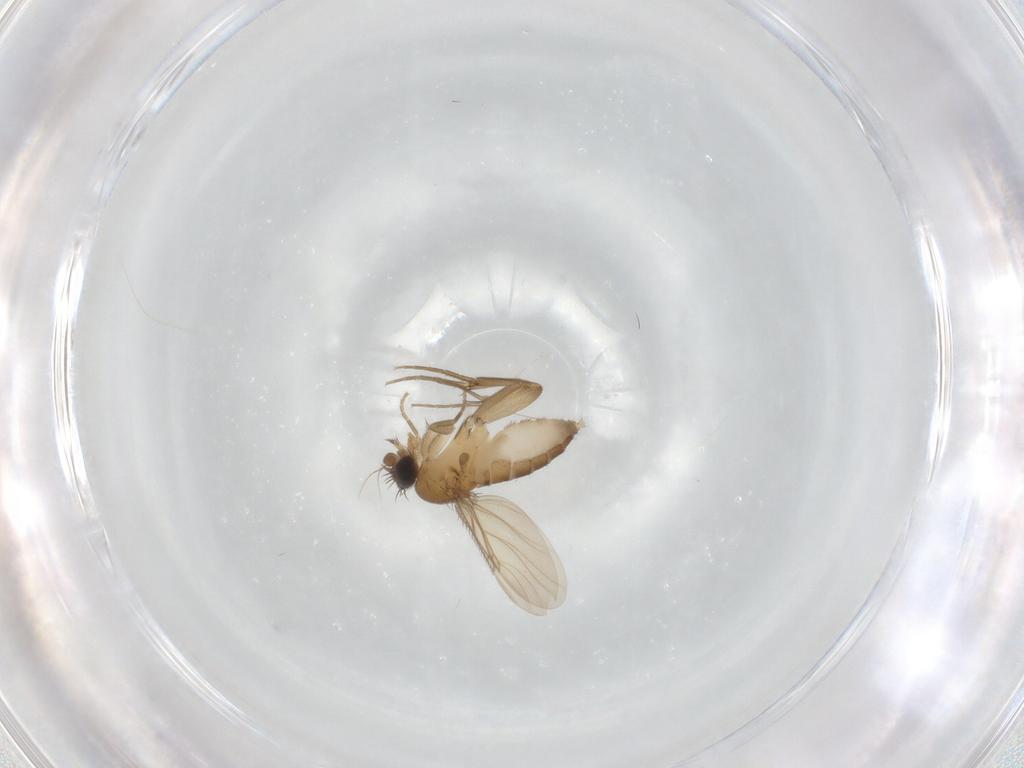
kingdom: Animalia
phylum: Arthropoda
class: Insecta
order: Diptera
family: Phoridae
